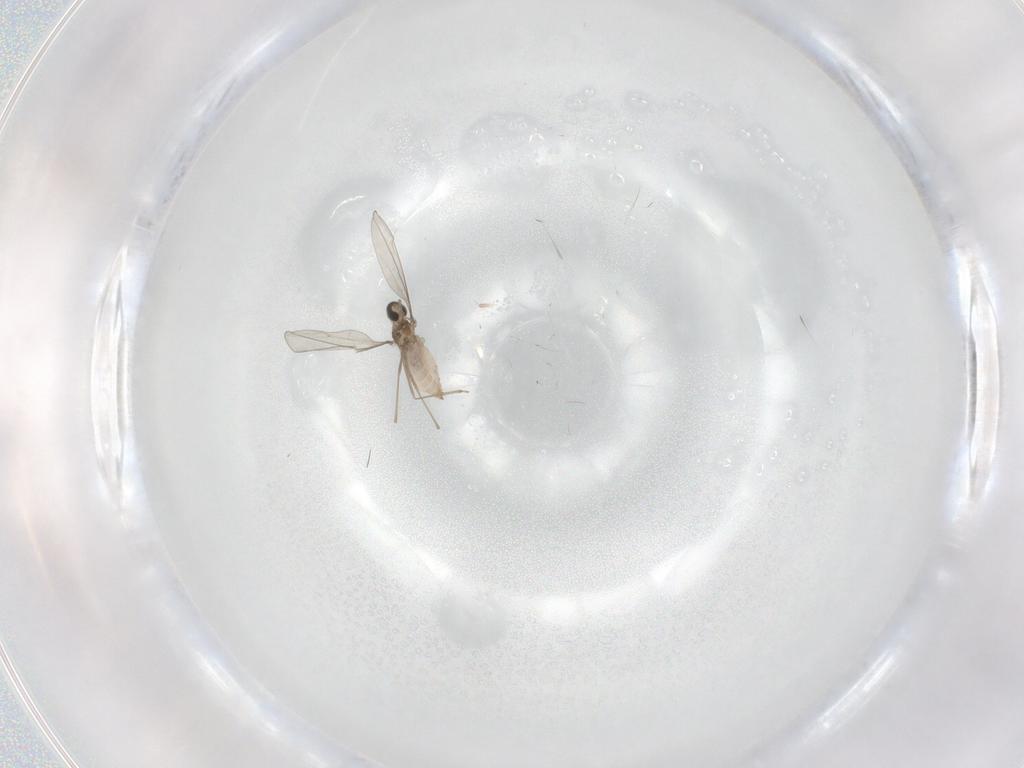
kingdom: Animalia
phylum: Arthropoda
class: Insecta
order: Diptera
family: Cecidomyiidae
